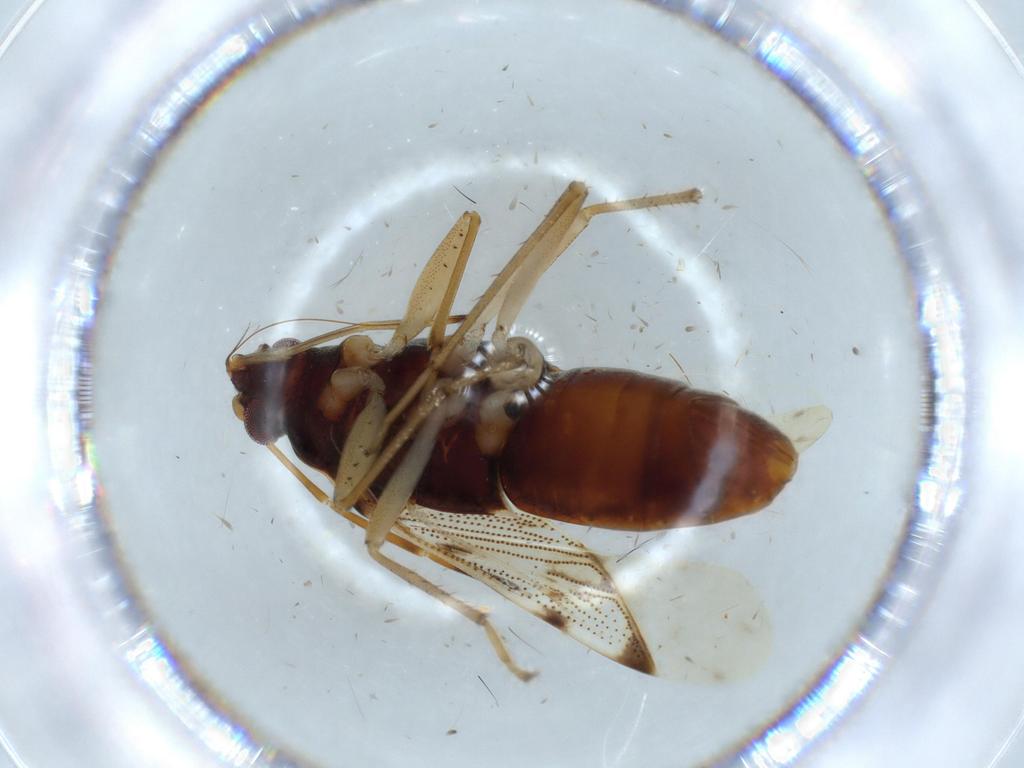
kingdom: Animalia
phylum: Arthropoda
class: Insecta
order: Hemiptera
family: Rhyparochromidae
